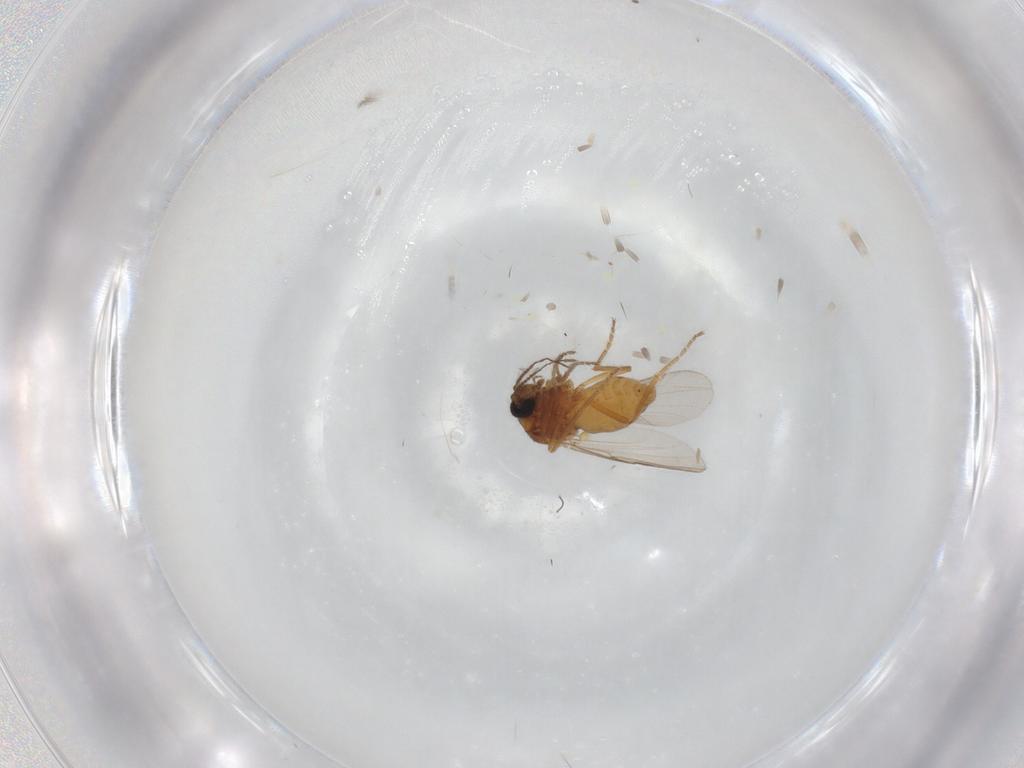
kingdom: Animalia
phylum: Arthropoda
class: Insecta
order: Diptera
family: Ceratopogonidae
